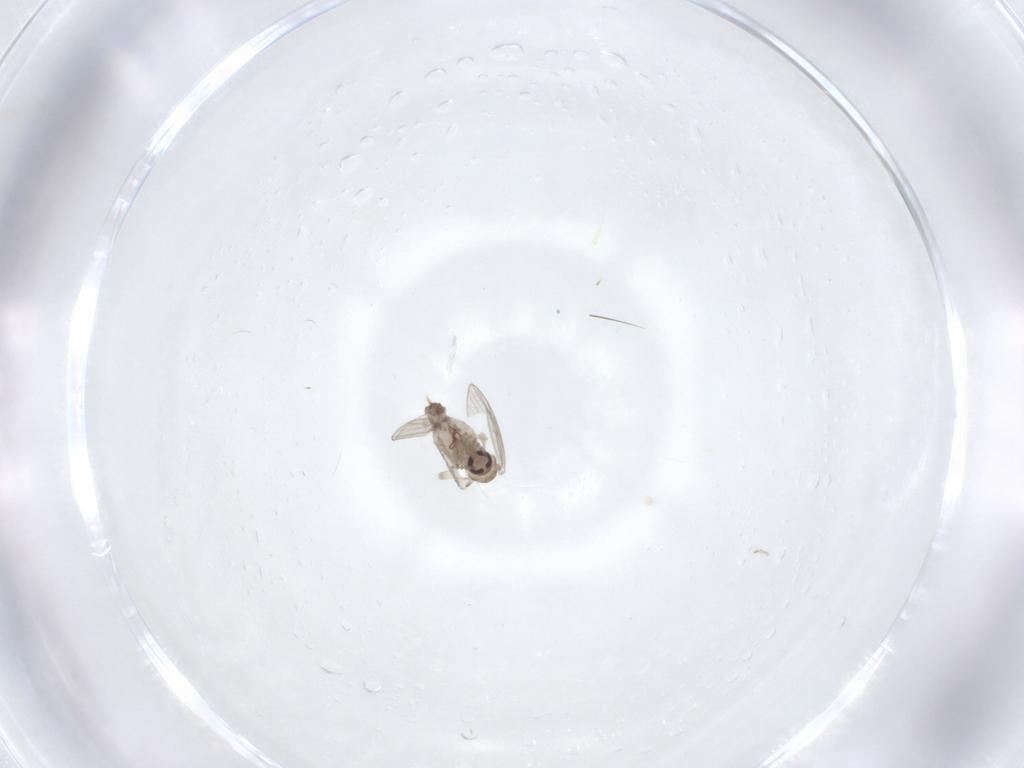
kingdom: Animalia
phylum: Arthropoda
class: Insecta
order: Diptera
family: Psychodidae
